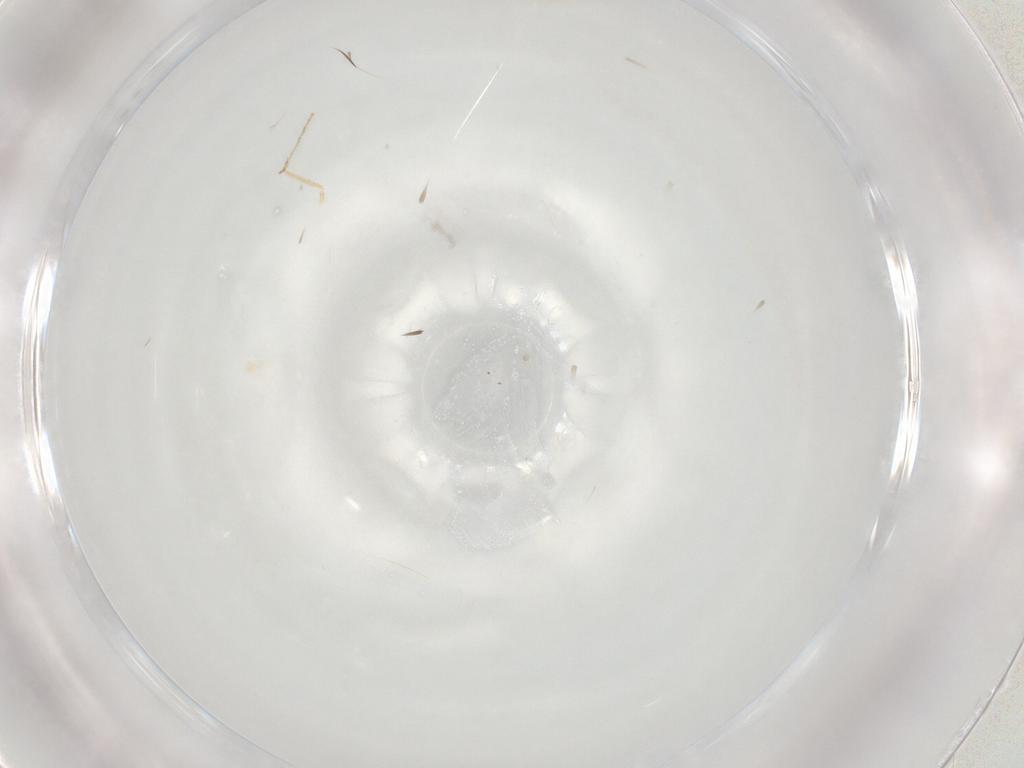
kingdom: Animalia
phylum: Arthropoda
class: Insecta
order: Diptera
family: Ceratopogonidae
